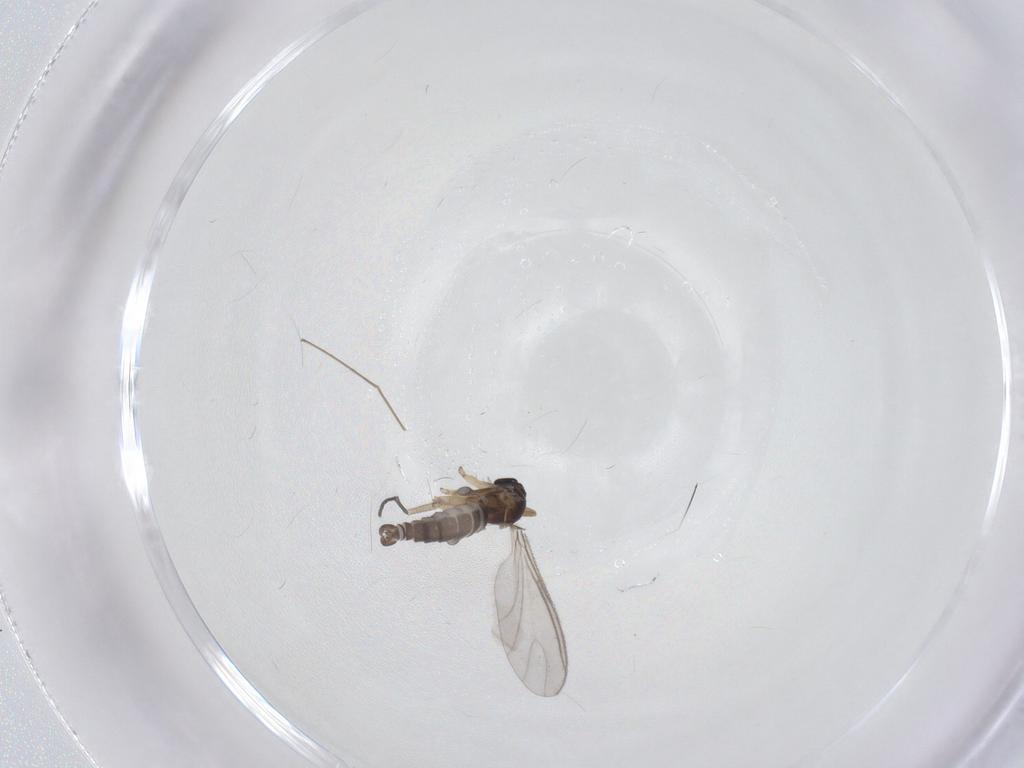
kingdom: Animalia
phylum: Arthropoda
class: Insecta
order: Diptera
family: Sciaridae
